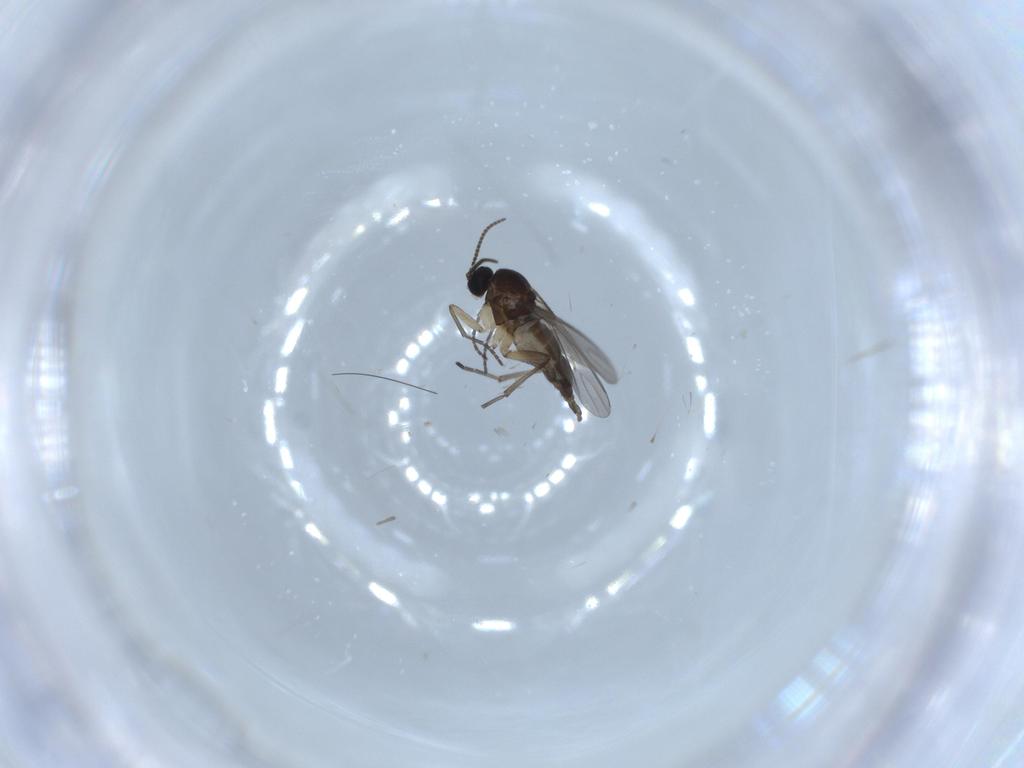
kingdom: Animalia
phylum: Arthropoda
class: Insecta
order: Diptera
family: Sciaridae
